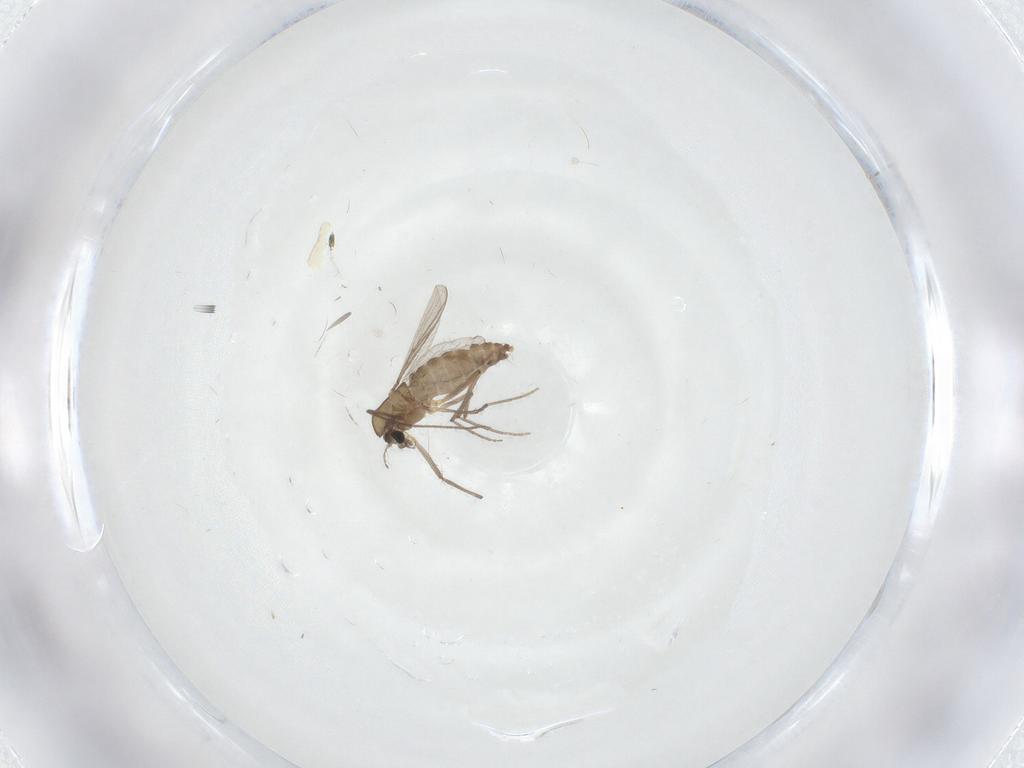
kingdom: Animalia
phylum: Arthropoda
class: Insecta
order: Diptera
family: Chironomidae
